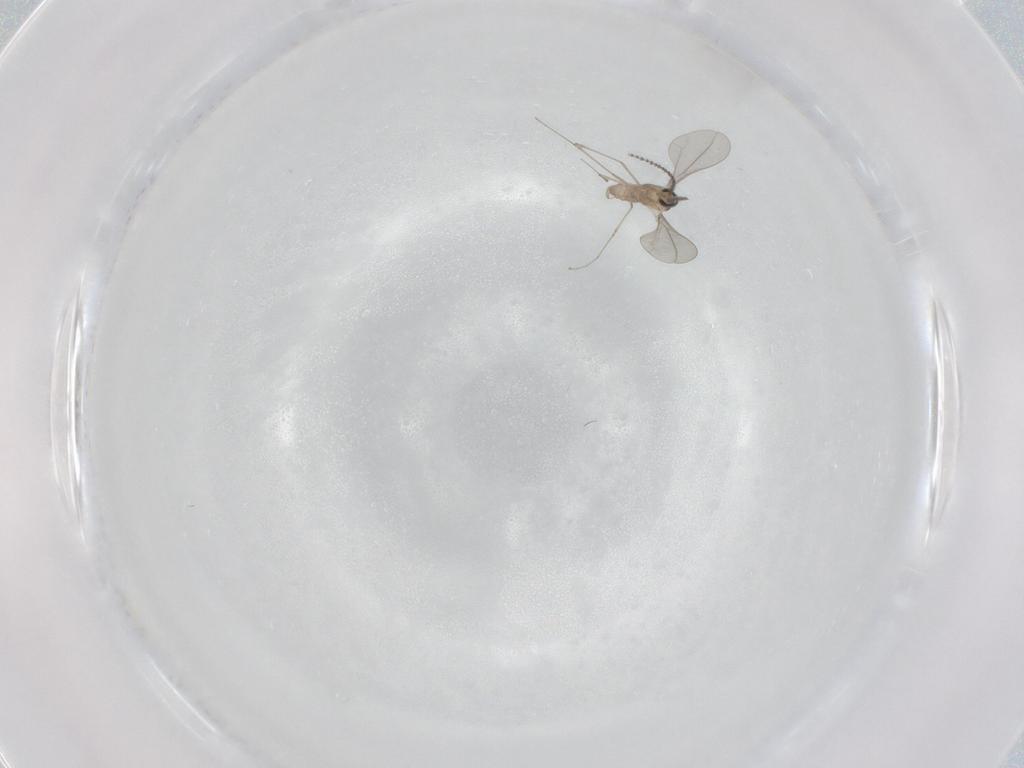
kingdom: Animalia
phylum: Arthropoda
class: Insecta
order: Diptera
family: Cecidomyiidae
